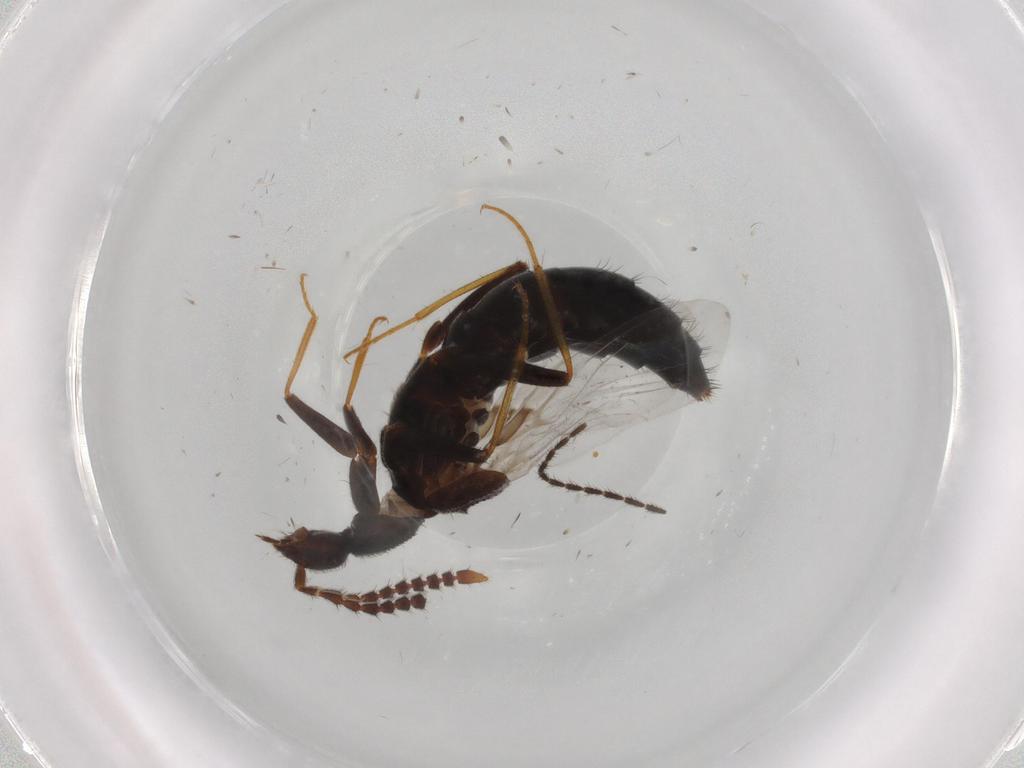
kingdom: Animalia
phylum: Arthropoda
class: Insecta
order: Coleoptera
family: Staphylinidae
